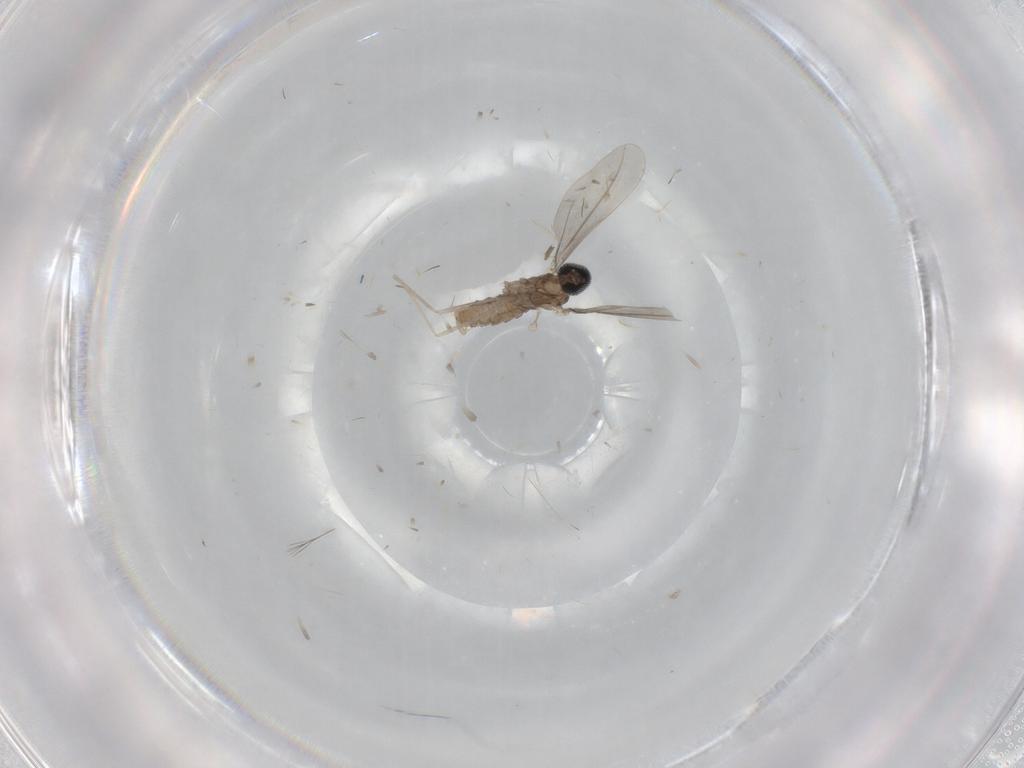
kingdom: Animalia
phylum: Arthropoda
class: Insecta
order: Diptera
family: Cecidomyiidae
